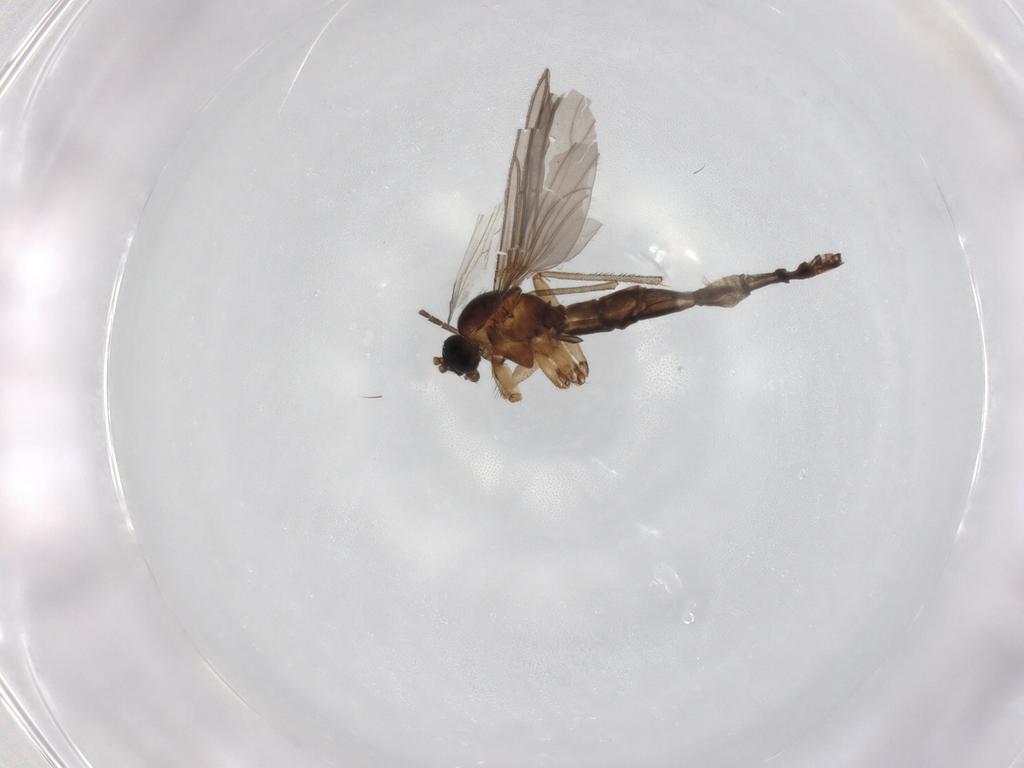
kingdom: Animalia
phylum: Arthropoda
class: Insecta
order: Diptera
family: Sciaridae
